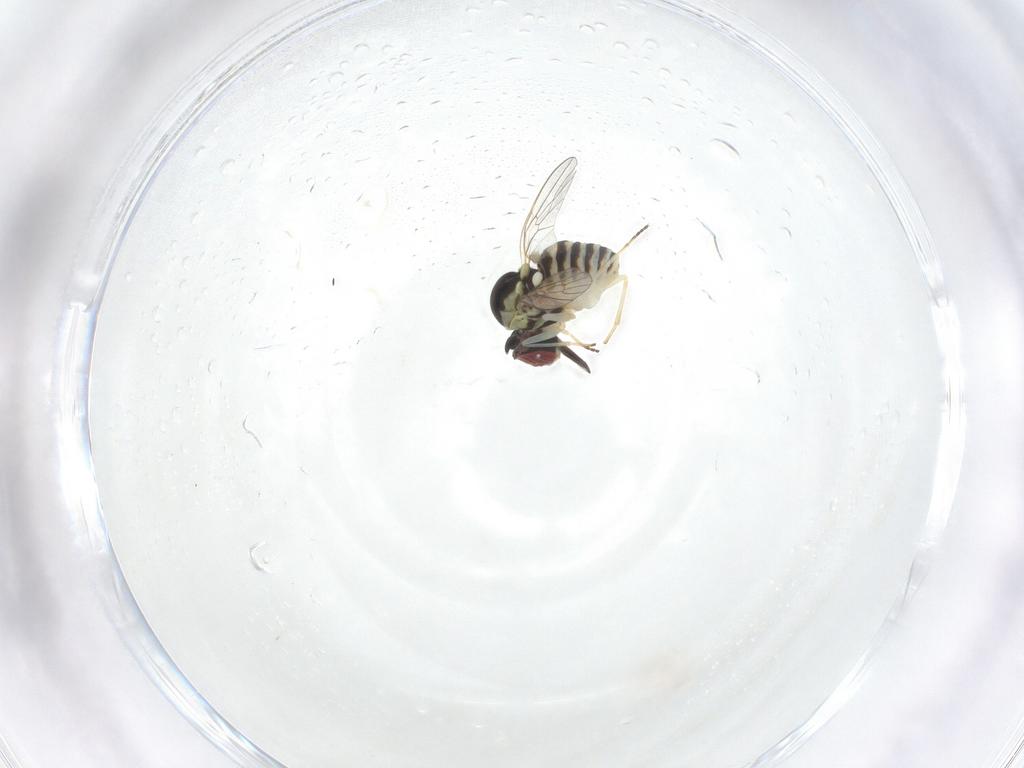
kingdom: Animalia
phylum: Arthropoda
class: Insecta
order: Diptera
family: Mythicomyiidae
